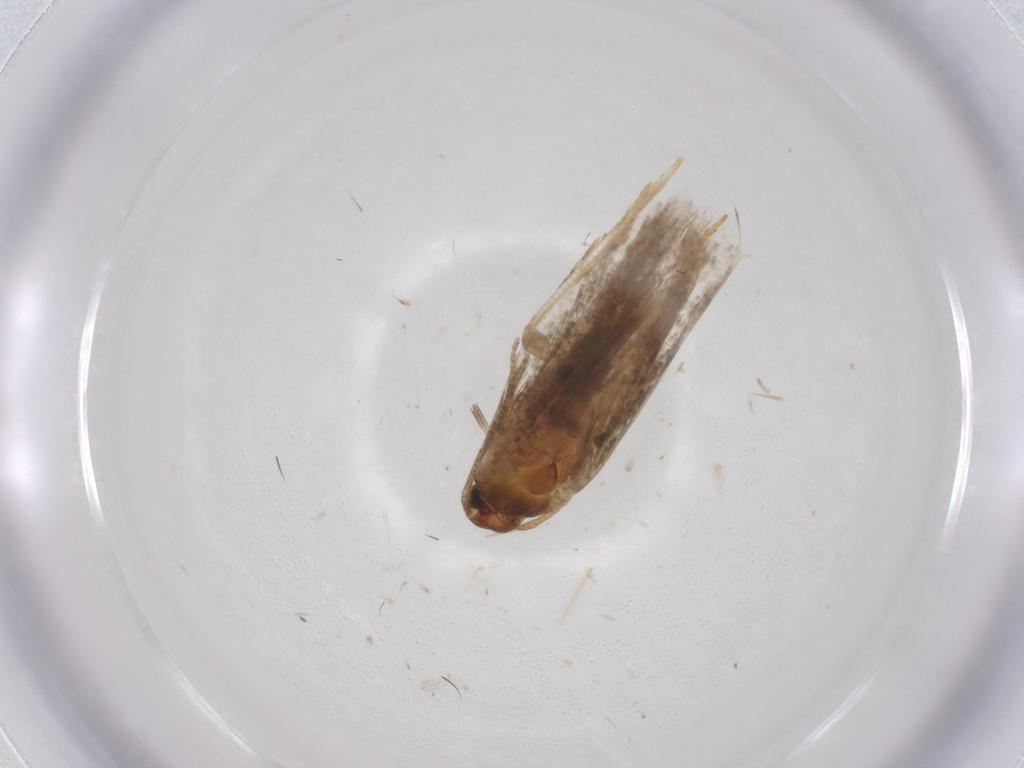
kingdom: Animalia
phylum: Arthropoda
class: Insecta
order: Lepidoptera
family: Gelechiidae
